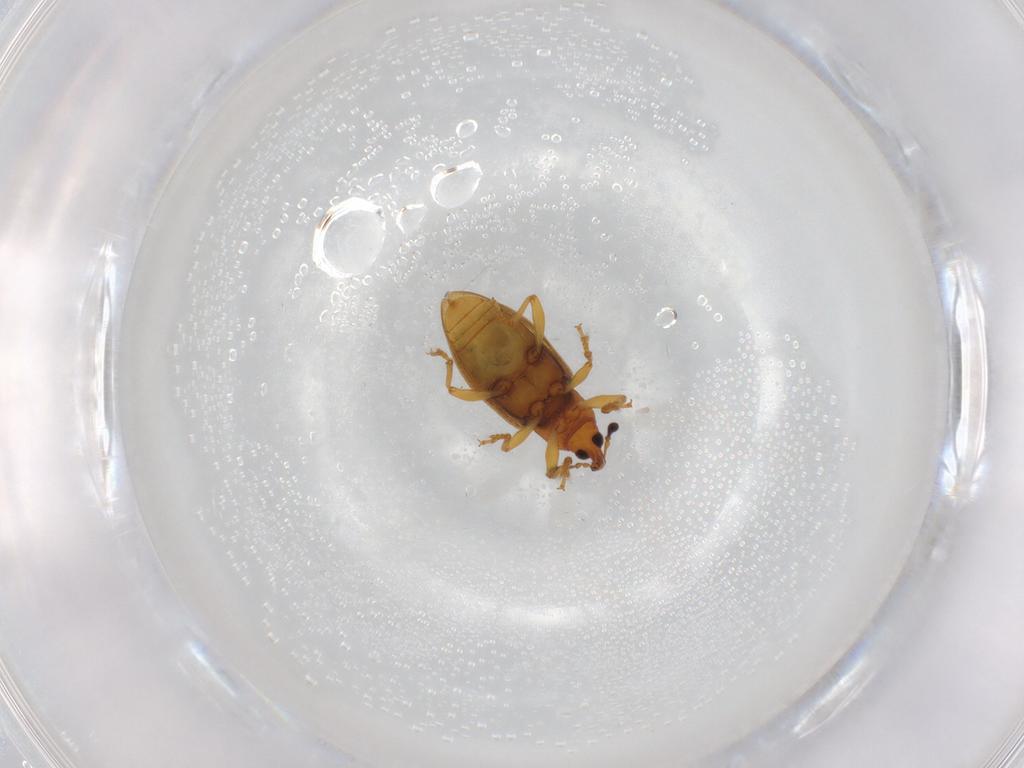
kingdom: Animalia
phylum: Arthropoda
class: Insecta
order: Coleoptera
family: Curculionidae
